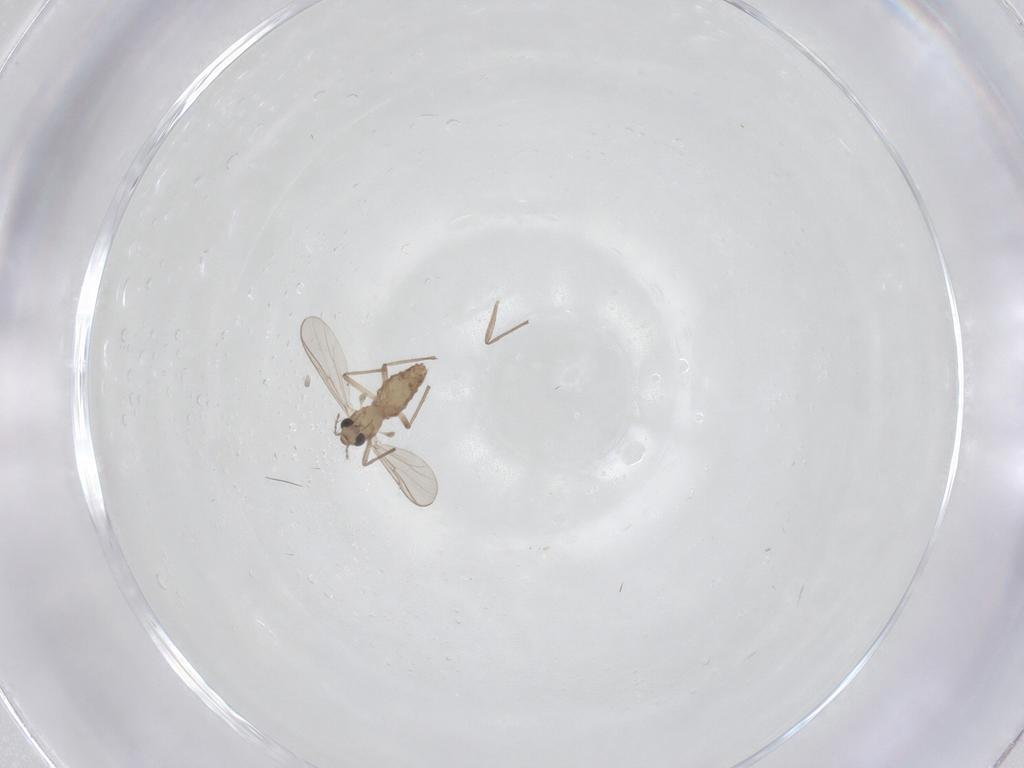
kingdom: Animalia
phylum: Arthropoda
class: Insecta
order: Diptera
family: Chironomidae
